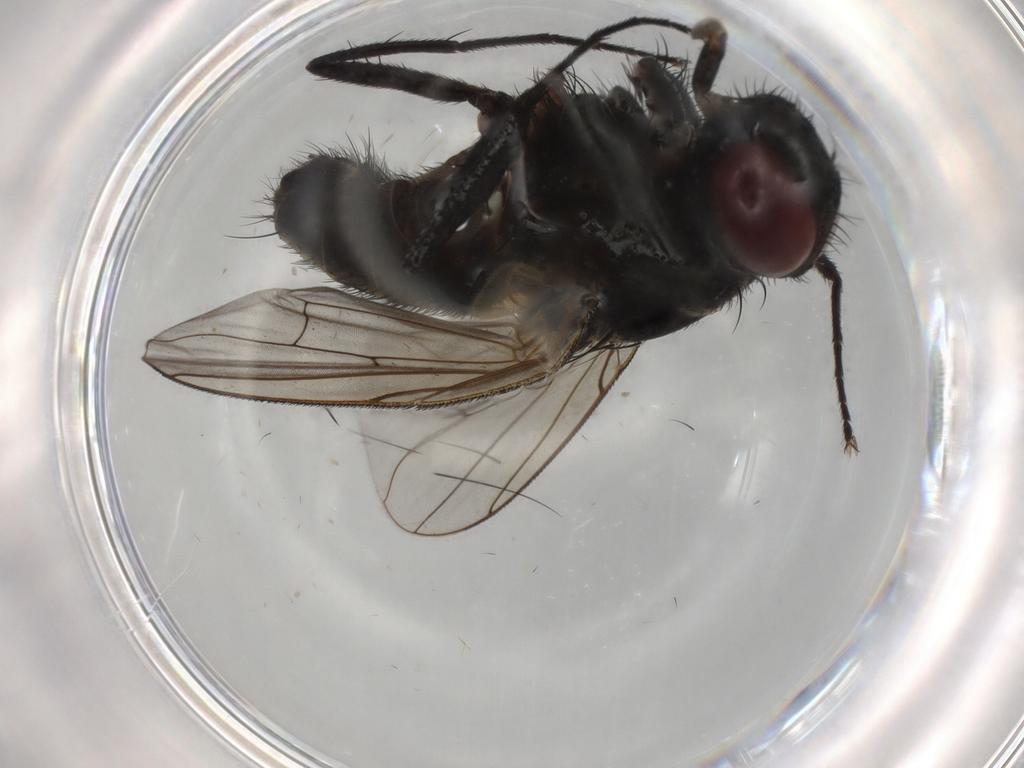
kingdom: Animalia
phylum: Arthropoda
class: Insecta
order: Diptera
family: Muscidae
